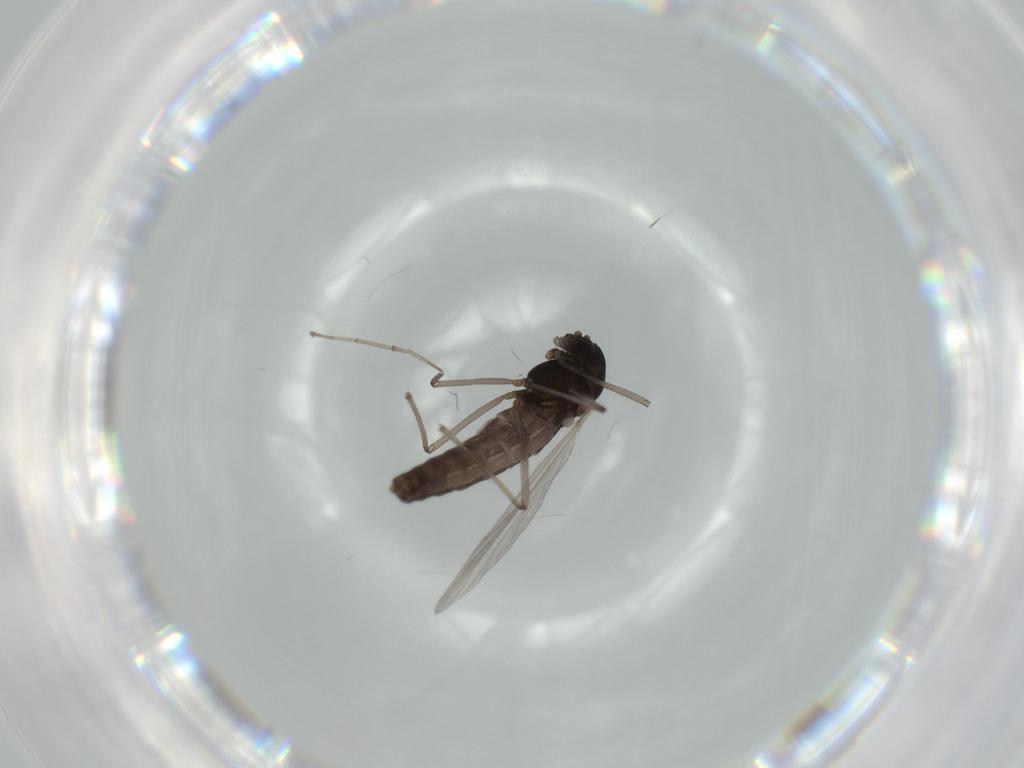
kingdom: Animalia
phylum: Arthropoda
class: Insecta
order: Diptera
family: Chironomidae
